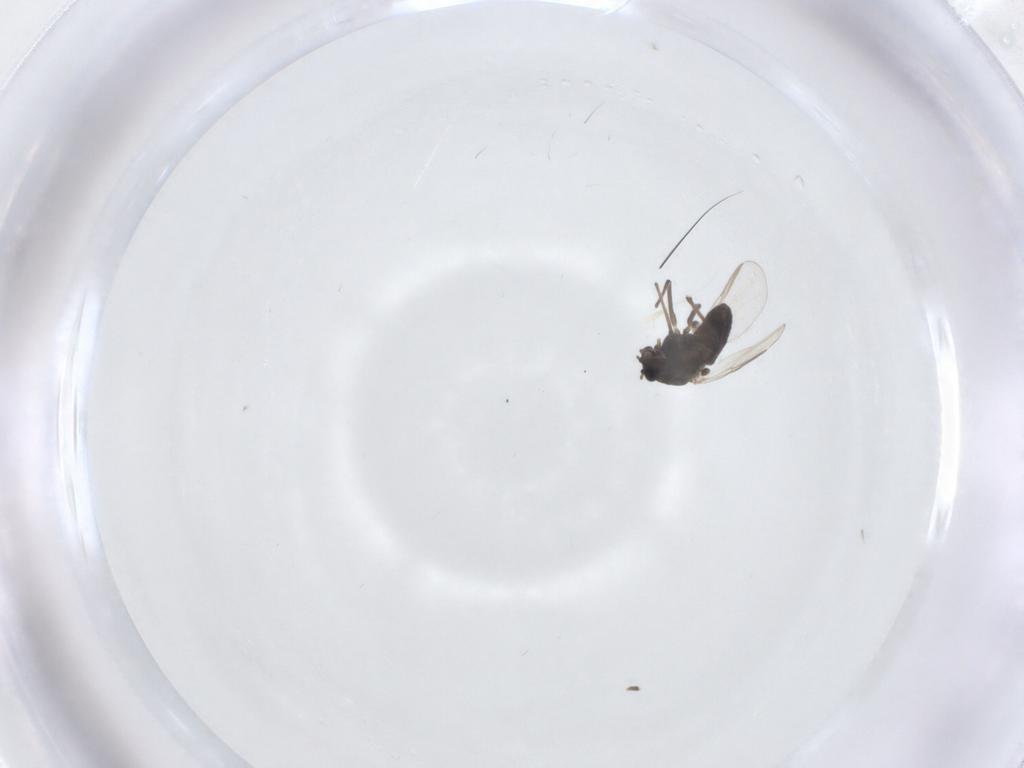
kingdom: Animalia
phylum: Arthropoda
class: Insecta
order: Diptera
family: Chironomidae
